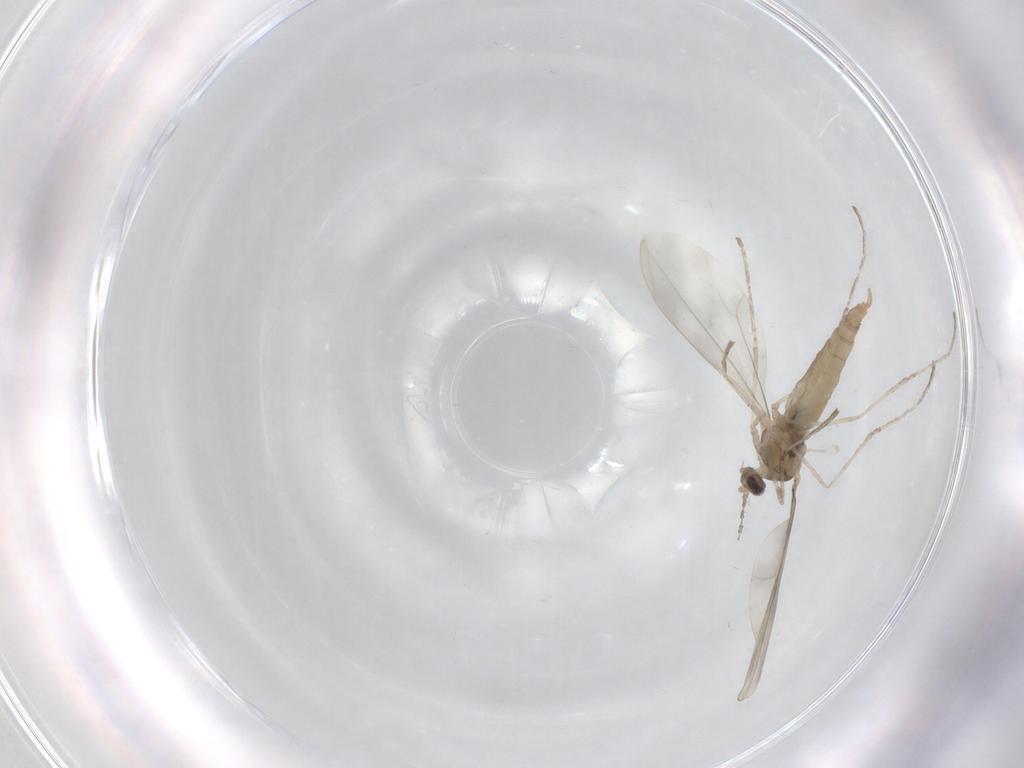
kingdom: Animalia
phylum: Arthropoda
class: Insecta
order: Diptera
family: Cecidomyiidae
